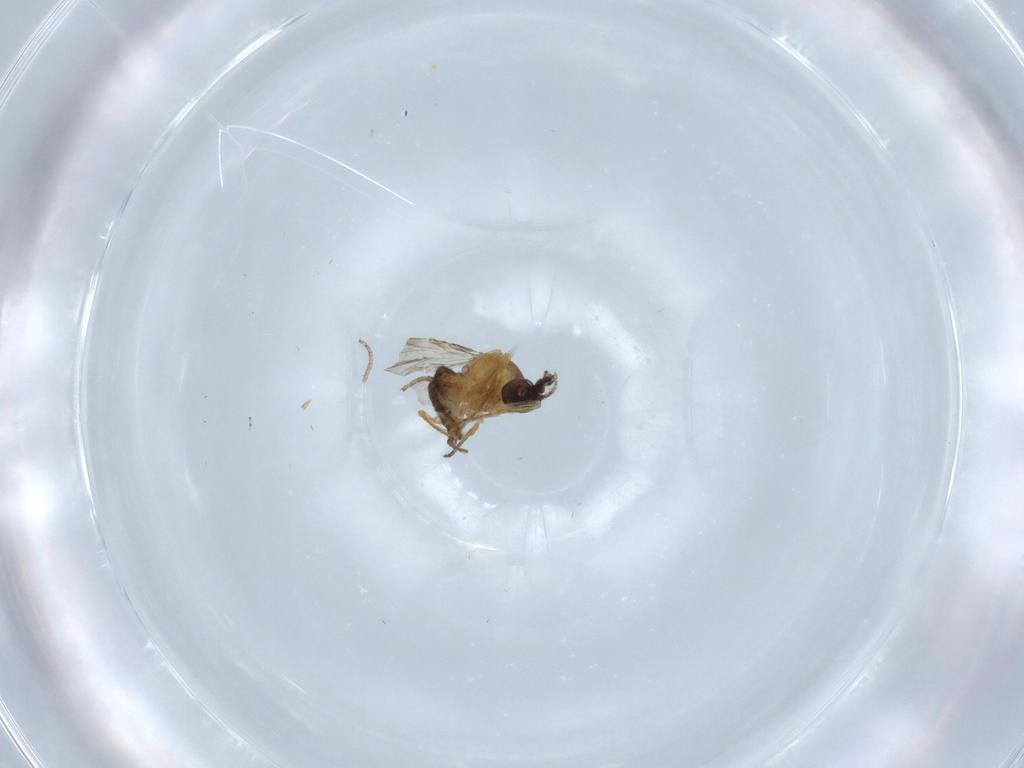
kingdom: Animalia
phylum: Arthropoda
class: Insecta
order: Diptera
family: Ceratopogonidae
